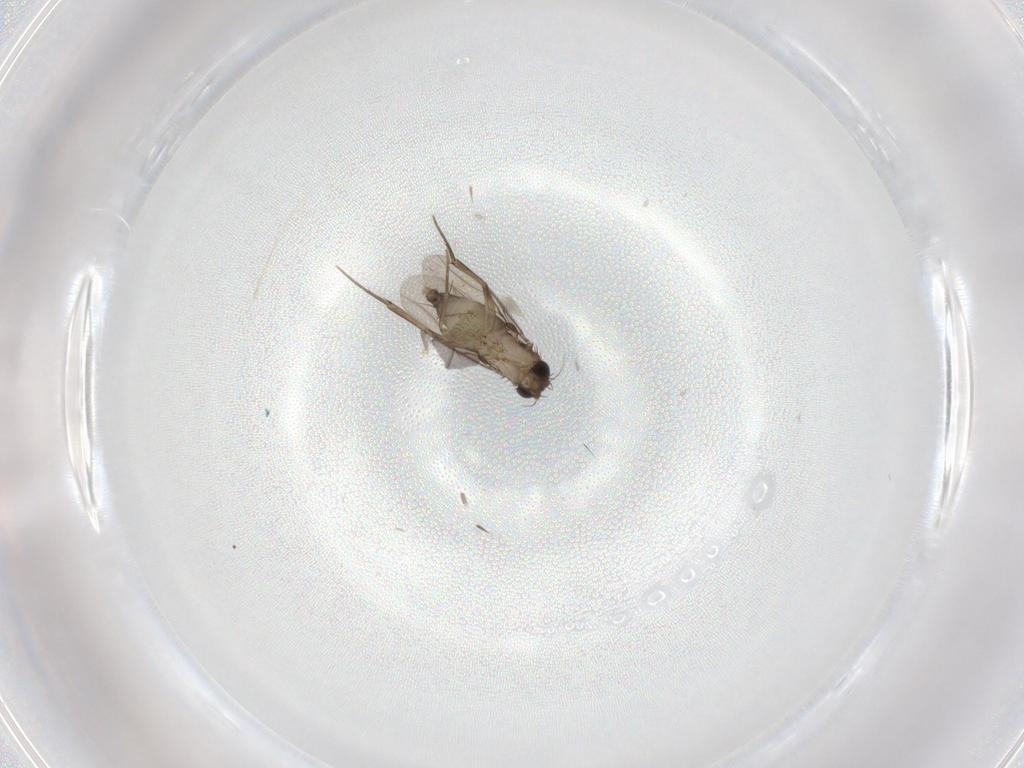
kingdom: Animalia
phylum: Arthropoda
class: Insecta
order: Diptera
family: Phoridae
